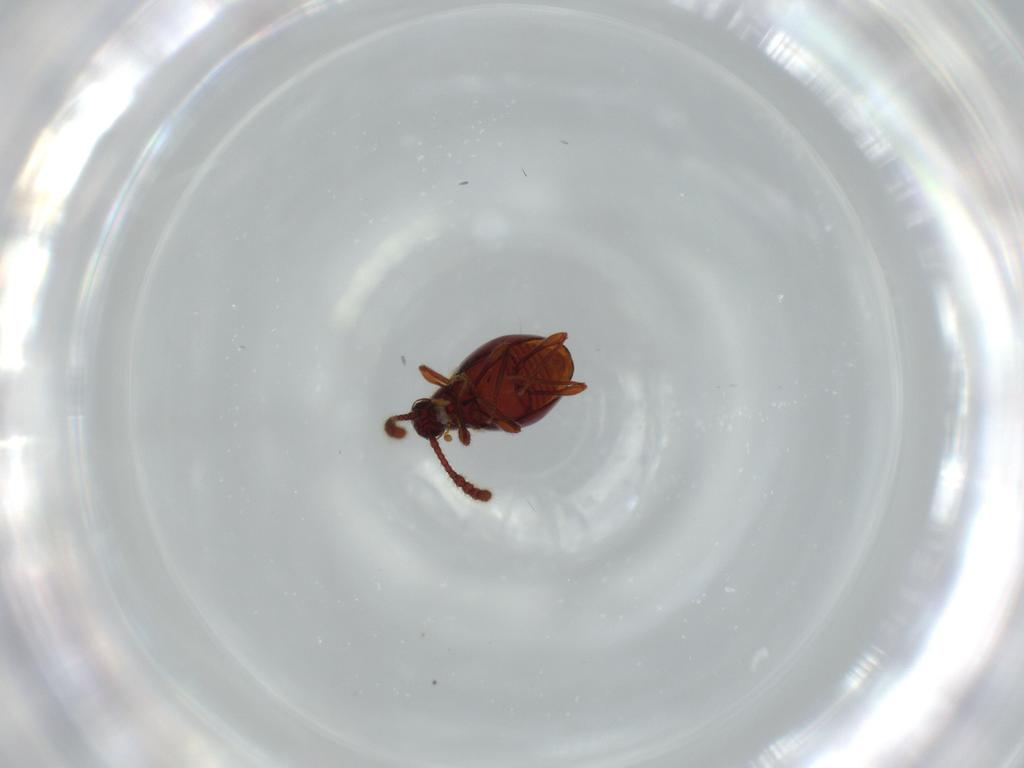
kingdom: Animalia
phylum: Arthropoda
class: Insecta
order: Coleoptera
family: Staphylinidae
